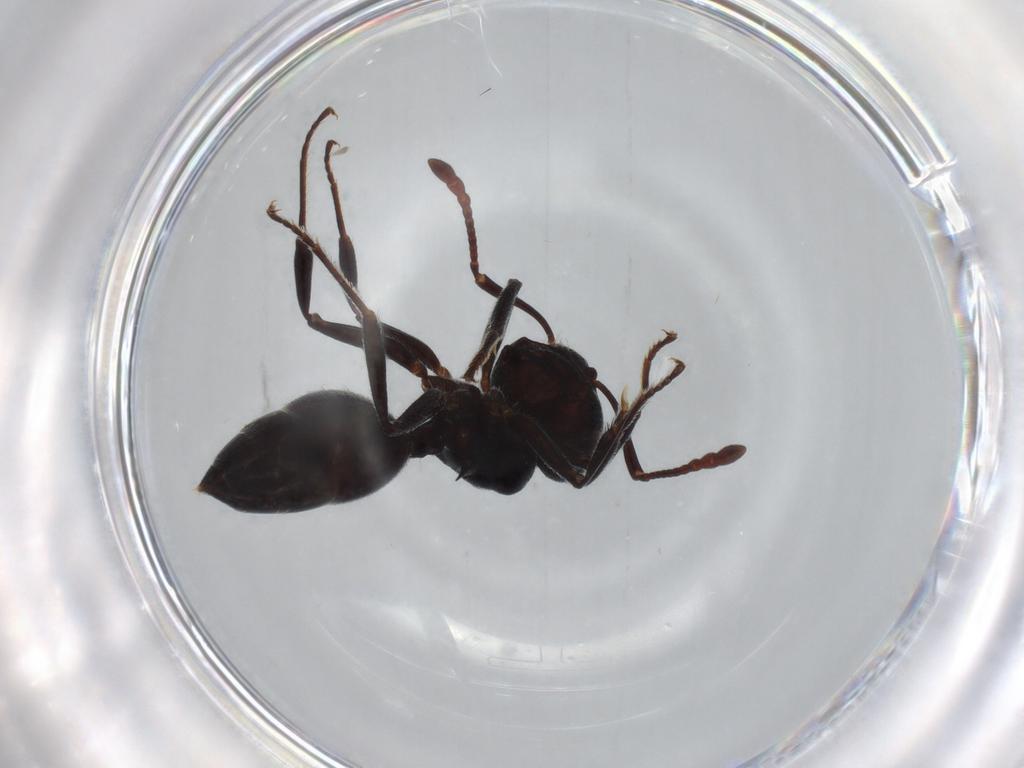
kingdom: Animalia
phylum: Arthropoda
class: Insecta
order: Hymenoptera
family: Formicidae
